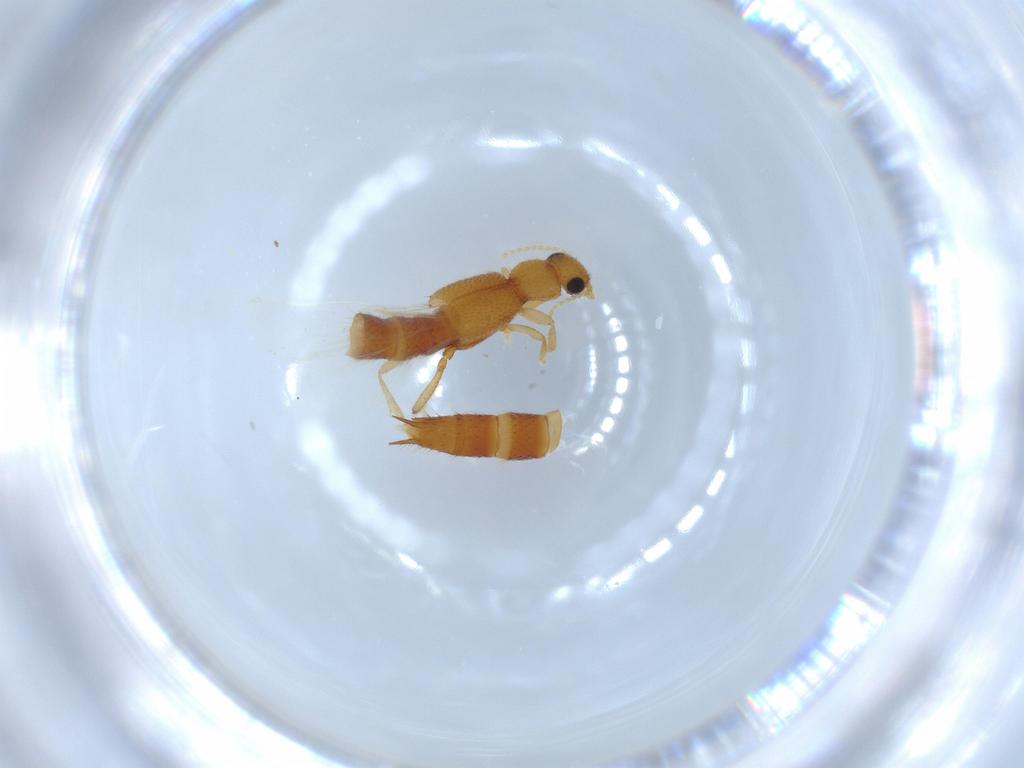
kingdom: Animalia
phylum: Arthropoda
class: Insecta
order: Coleoptera
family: Staphylinidae
